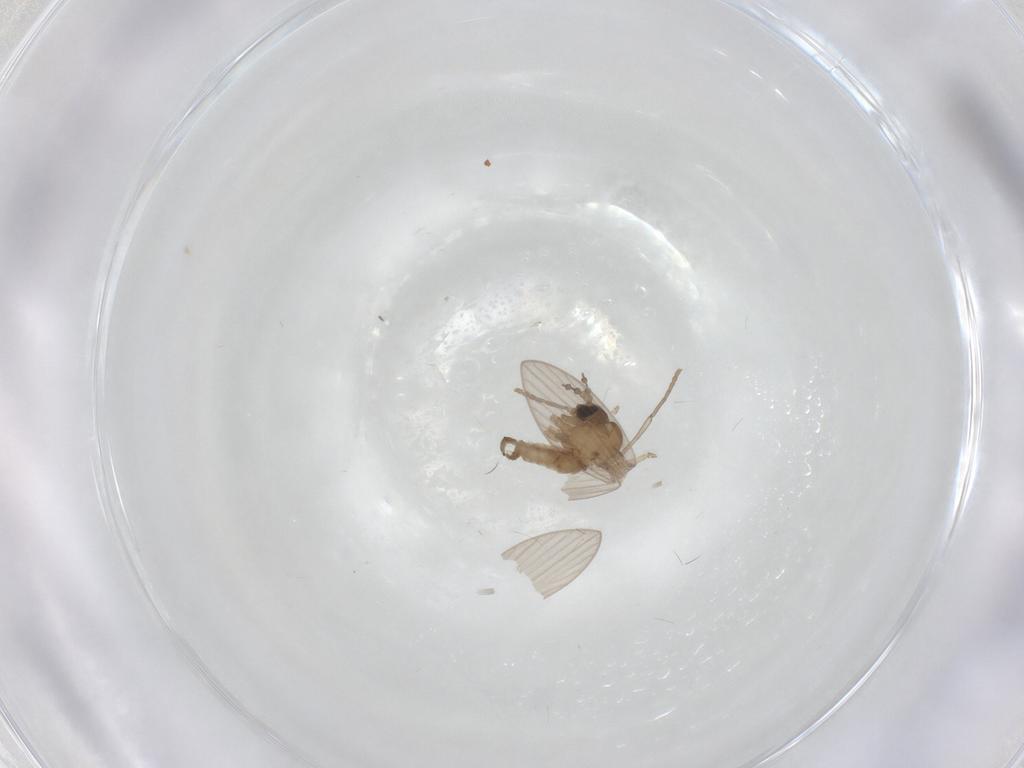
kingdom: Animalia
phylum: Arthropoda
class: Insecta
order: Diptera
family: Psychodidae
